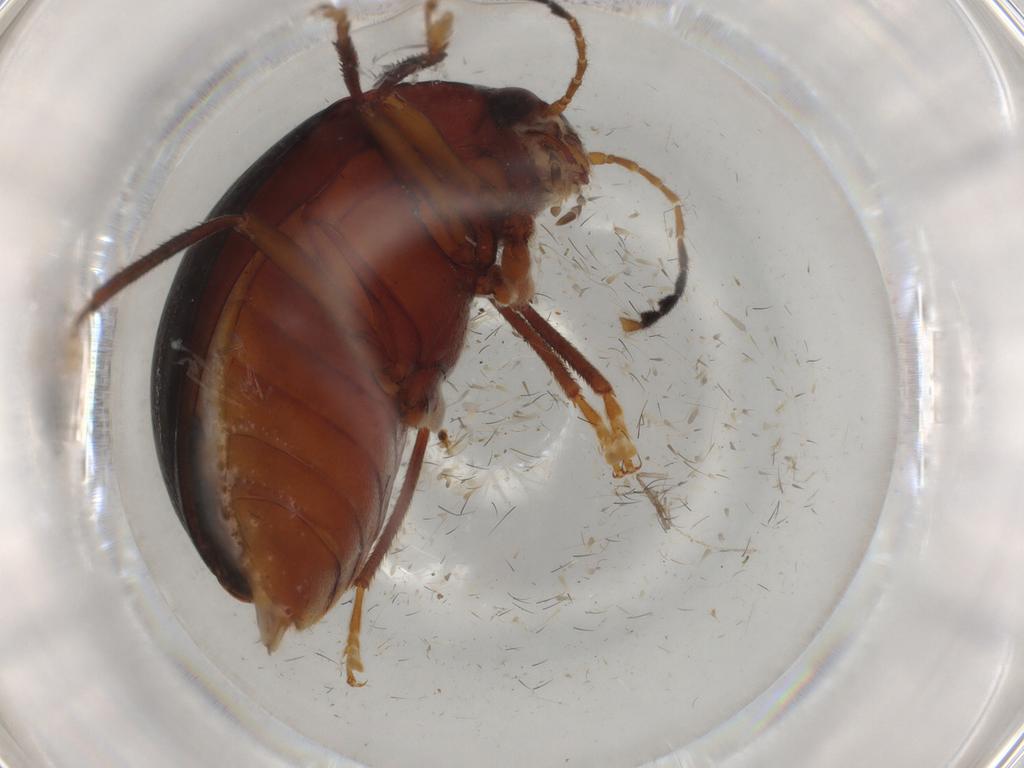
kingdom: Animalia
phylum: Arthropoda
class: Insecta
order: Coleoptera
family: Ptilodactylidae
